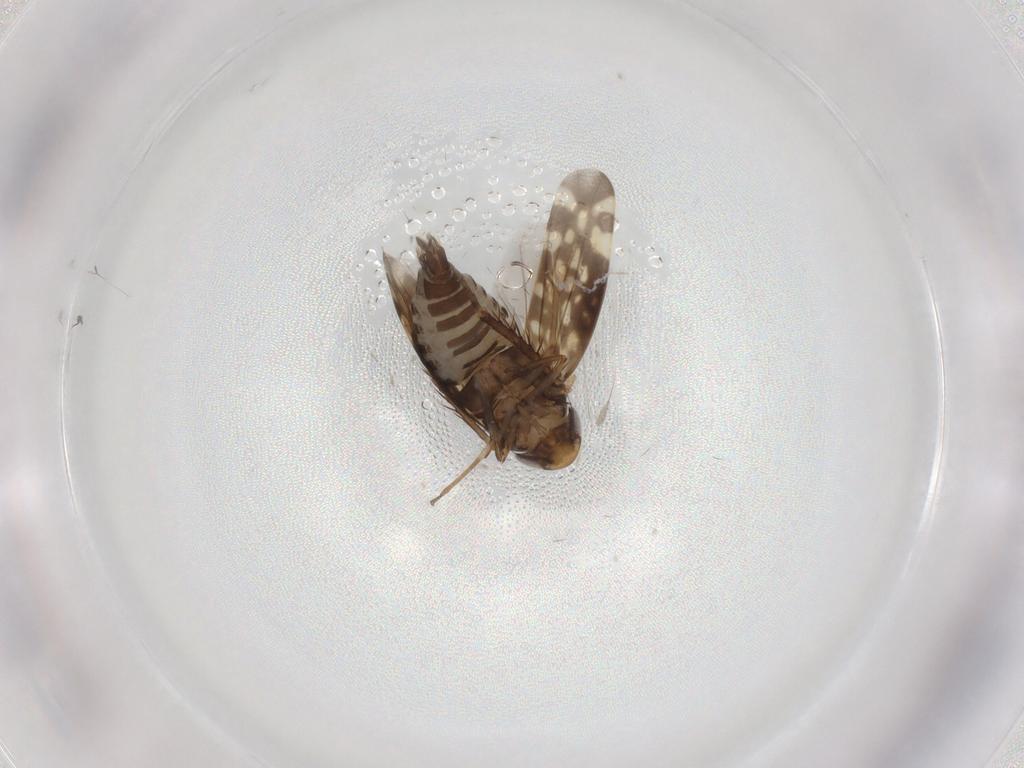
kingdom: Animalia
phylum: Arthropoda
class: Insecta
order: Hemiptera
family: Cicadellidae
